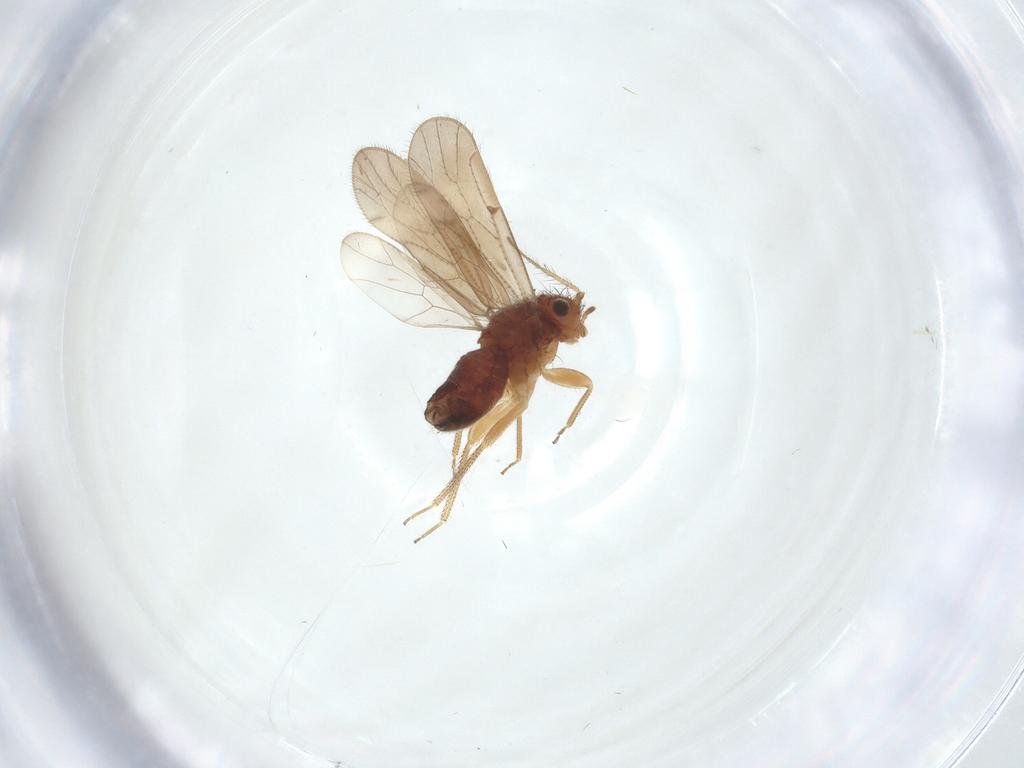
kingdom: Animalia
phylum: Arthropoda
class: Insecta
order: Psocodea
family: Ectopsocidae
